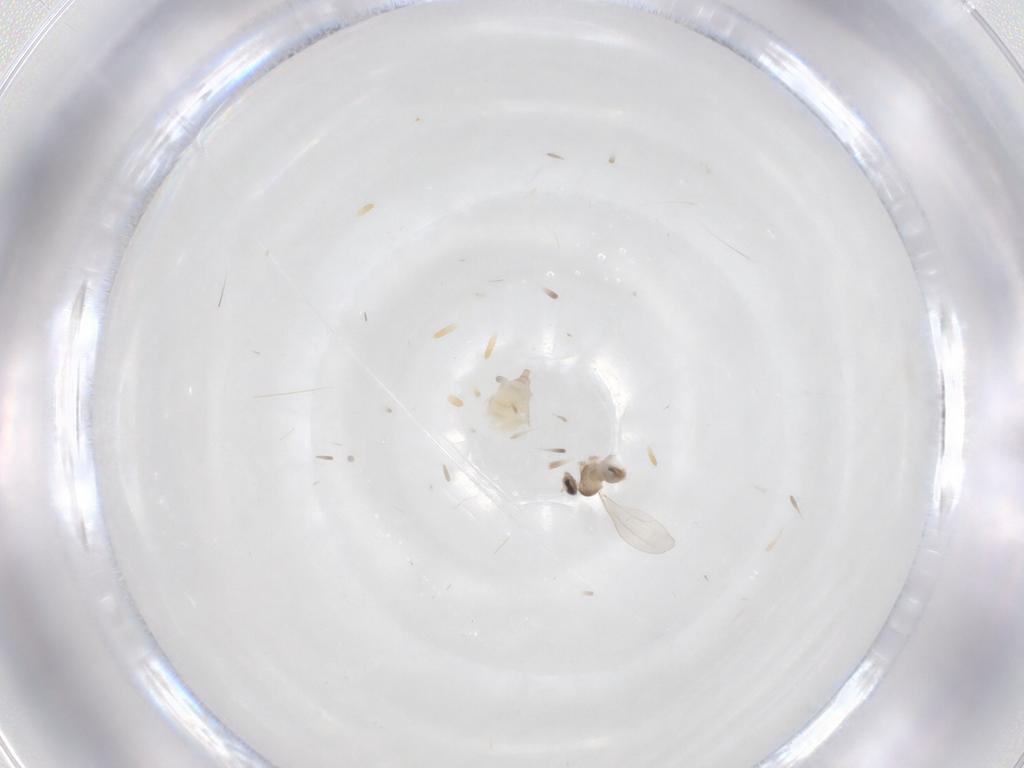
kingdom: Animalia
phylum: Arthropoda
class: Insecta
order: Diptera
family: Cecidomyiidae
